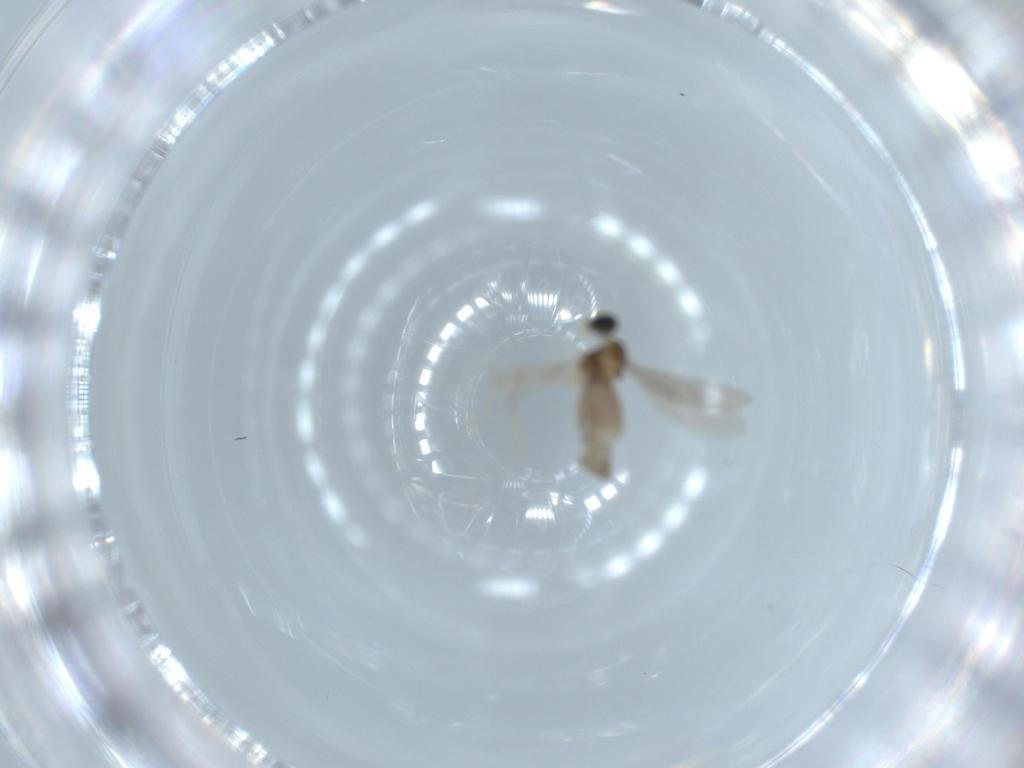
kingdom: Animalia
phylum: Arthropoda
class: Insecta
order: Diptera
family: Cecidomyiidae
